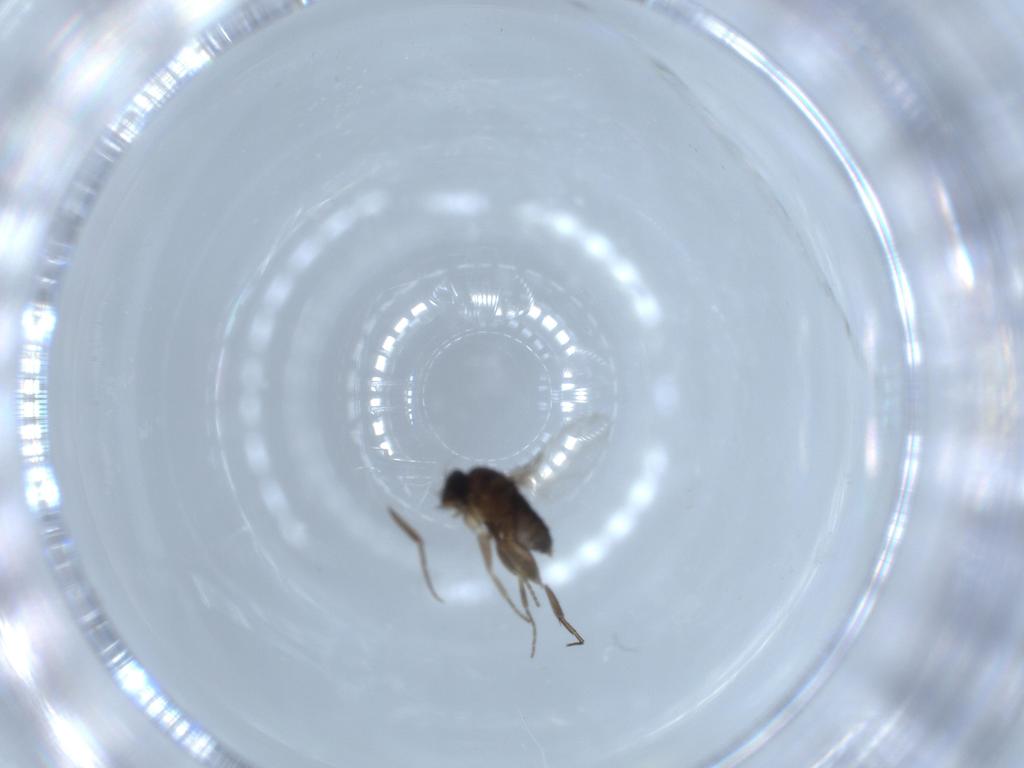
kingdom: Animalia
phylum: Arthropoda
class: Insecta
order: Diptera
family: Phoridae
